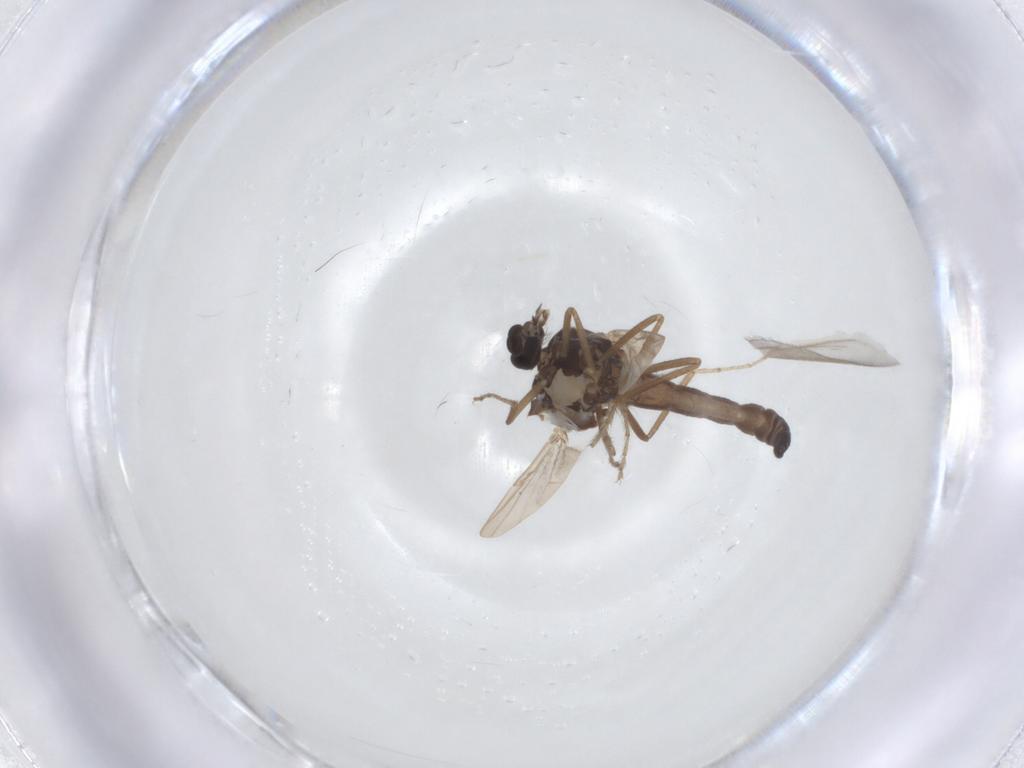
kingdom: Animalia
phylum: Arthropoda
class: Insecta
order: Diptera
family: Ceratopogonidae
